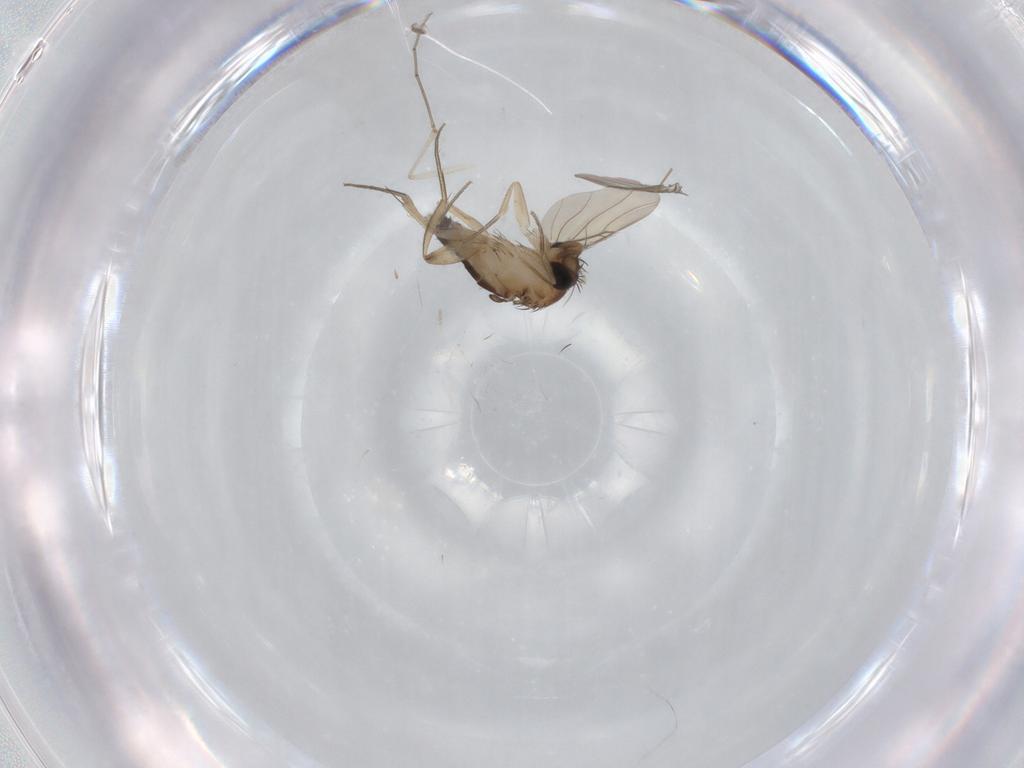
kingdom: Animalia
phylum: Arthropoda
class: Insecta
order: Diptera
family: Phoridae
